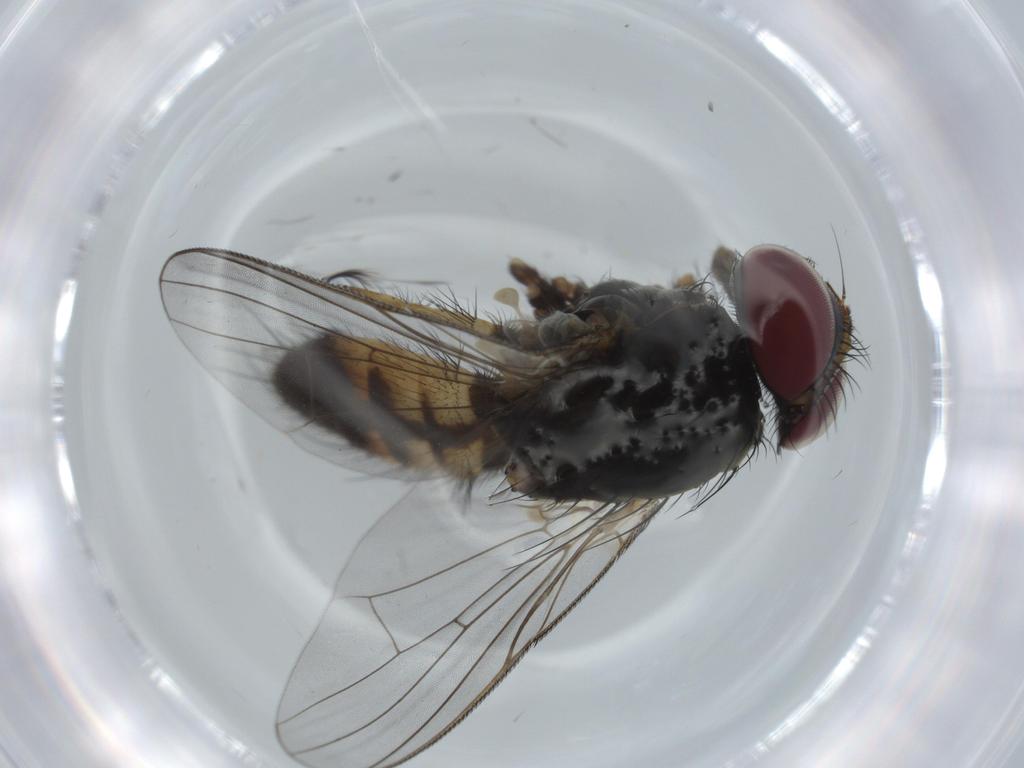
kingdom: Animalia
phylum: Arthropoda
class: Insecta
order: Diptera
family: Fannia
